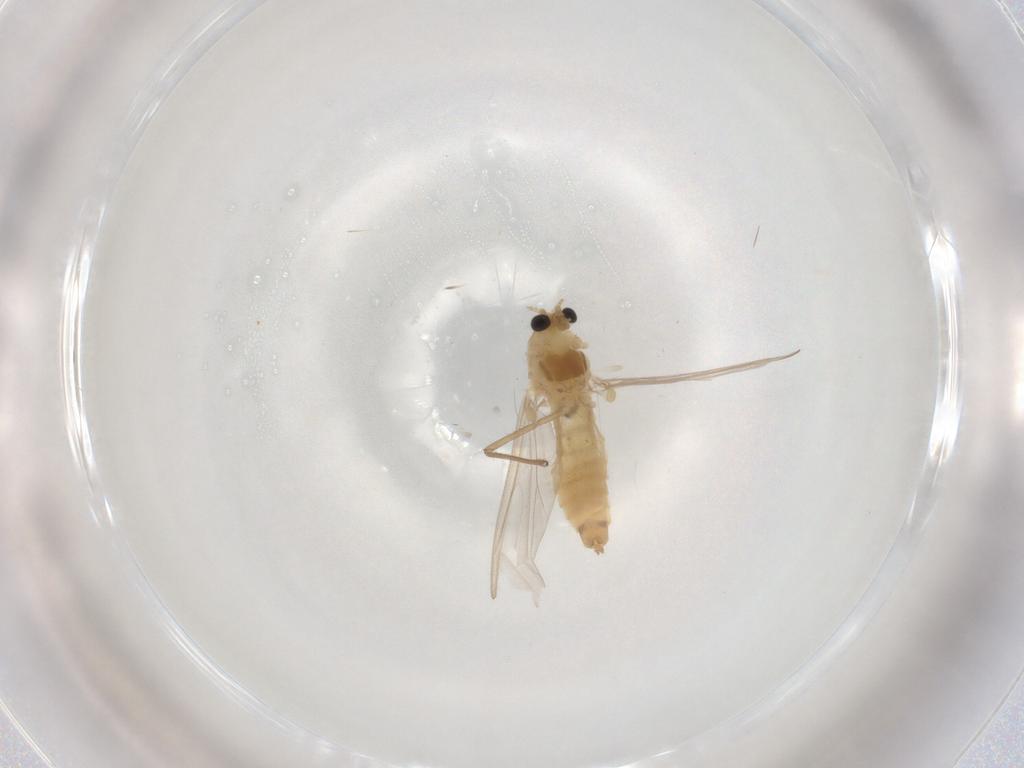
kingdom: Animalia
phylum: Arthropoda
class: Insecta
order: Diptera
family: Chironomidae
